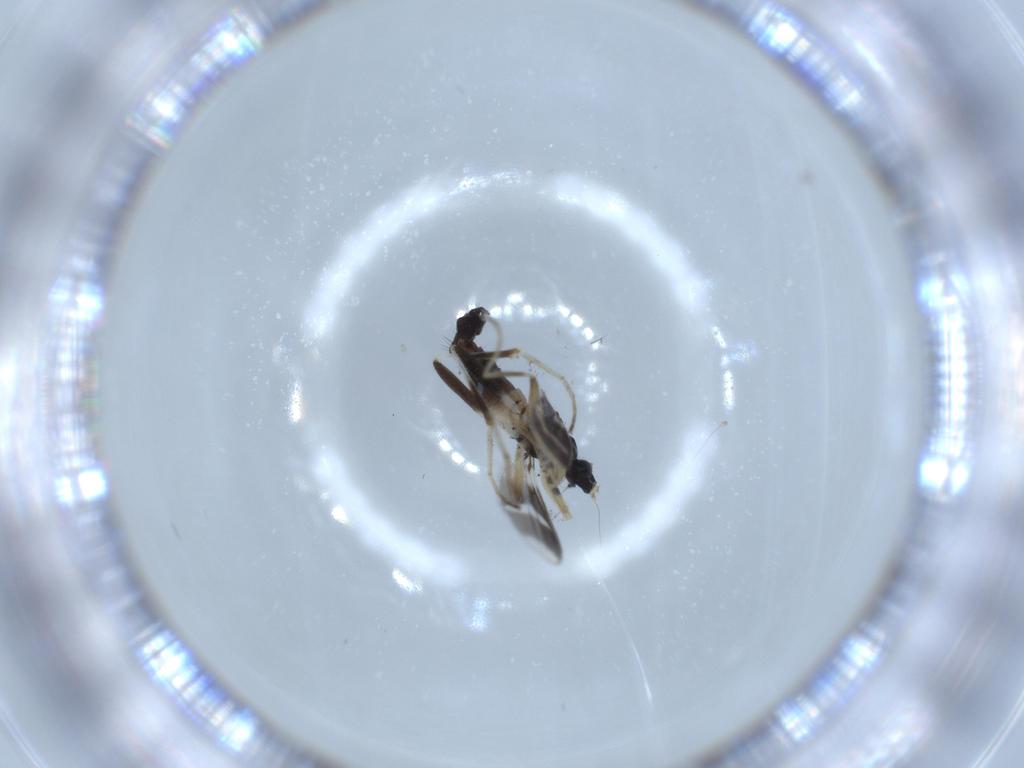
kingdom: Animalia
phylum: Arthropoda
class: Insecta
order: Diptera
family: Hybotidae
